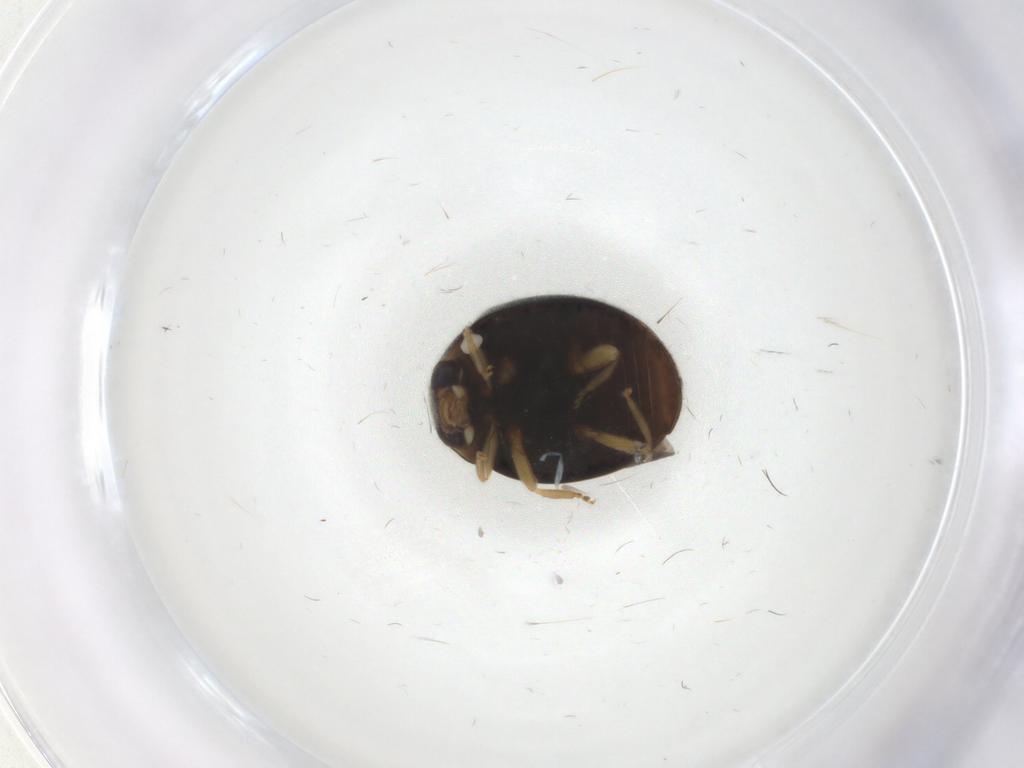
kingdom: Animalia
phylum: Arthropoda
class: Insecta
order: Coleoptera
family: Coccinellidae
